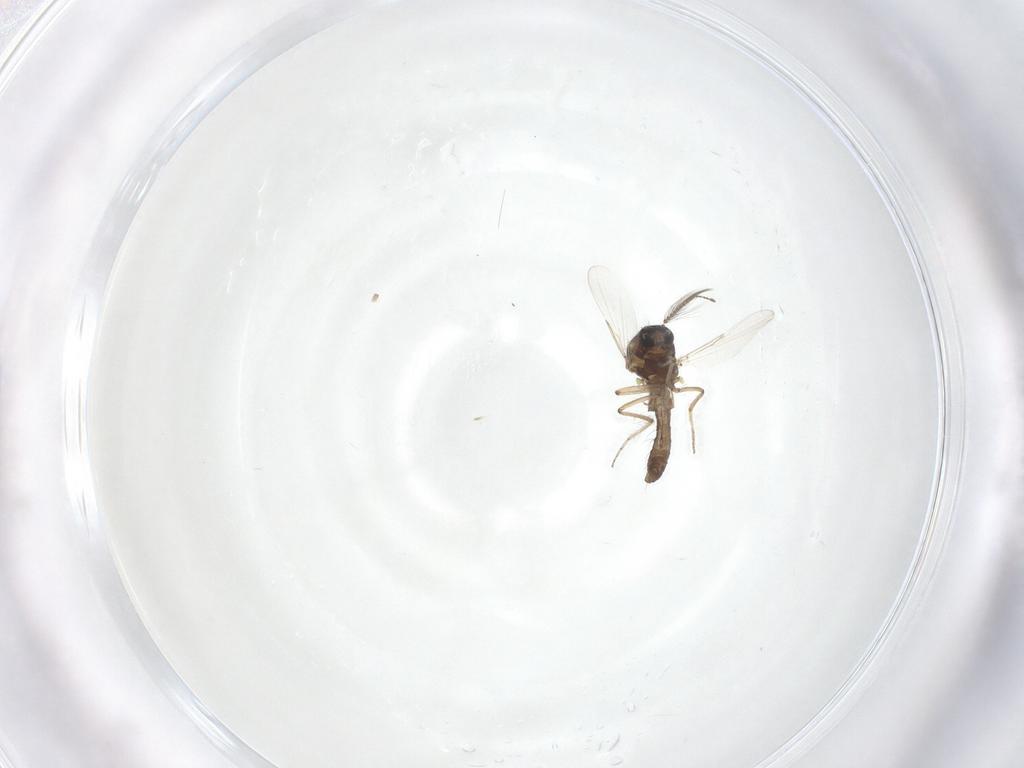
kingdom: Animalia
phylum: Arthropoda
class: Insecta
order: Diptera
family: Ceratopogonidae
